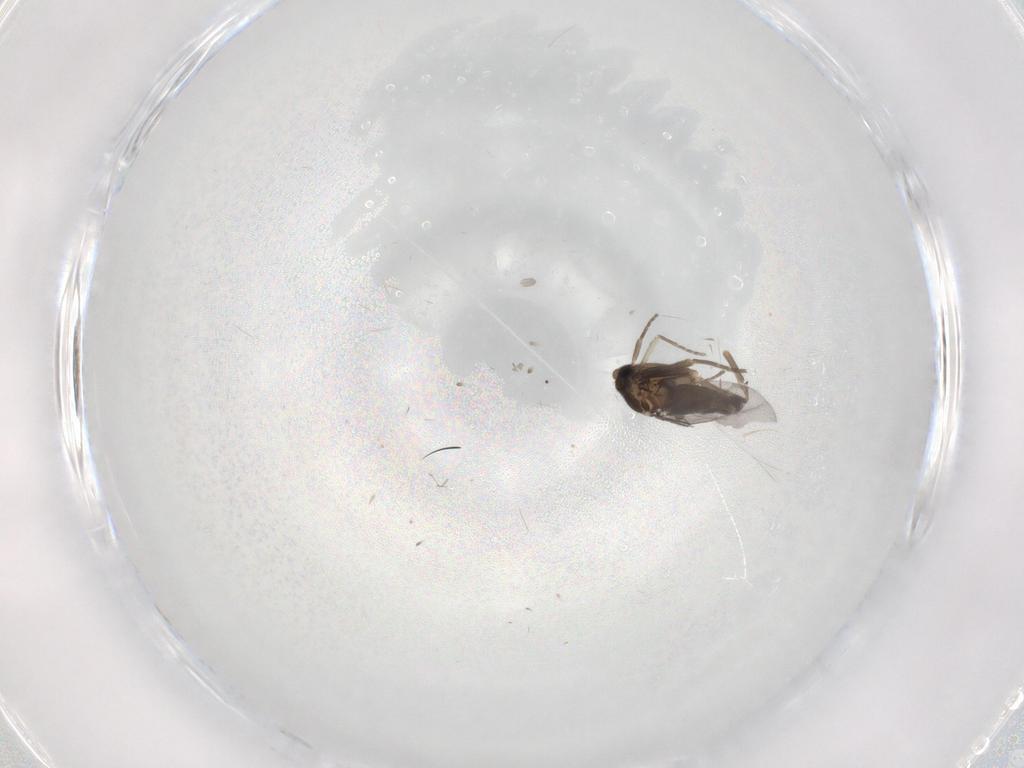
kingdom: Animalia
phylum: Arthropoda
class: Insecta
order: Diptera
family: Phoridae
